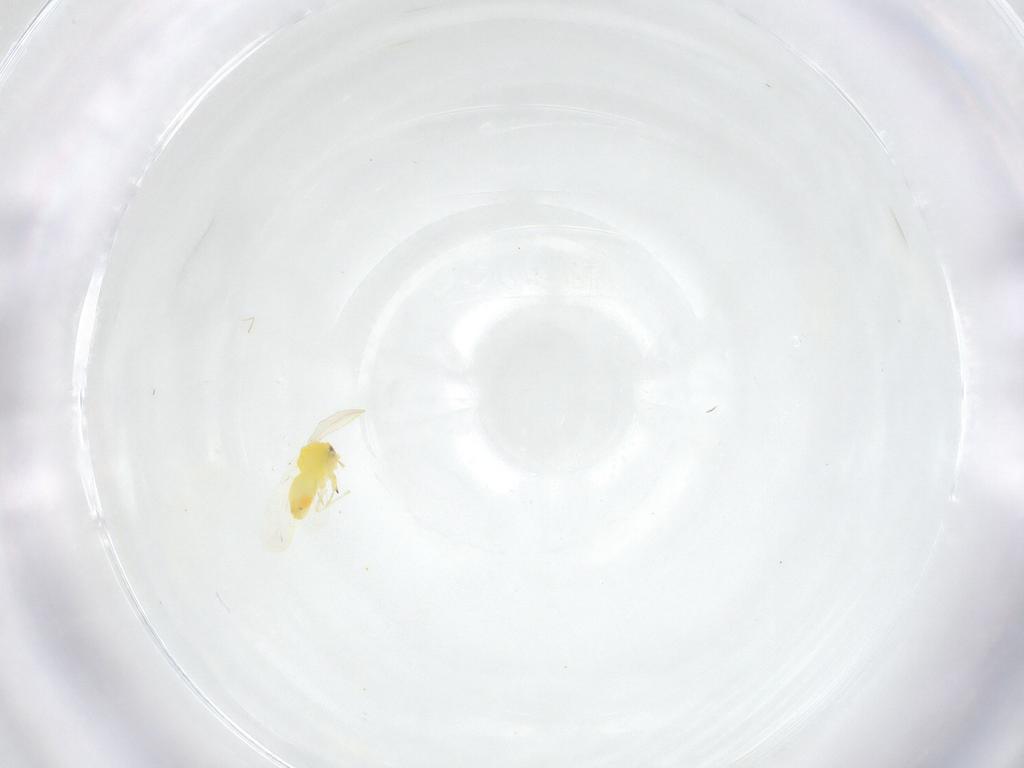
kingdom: Animalia
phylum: Arthropoda
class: Insecta
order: Hemiptera
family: Aleyrodidae
